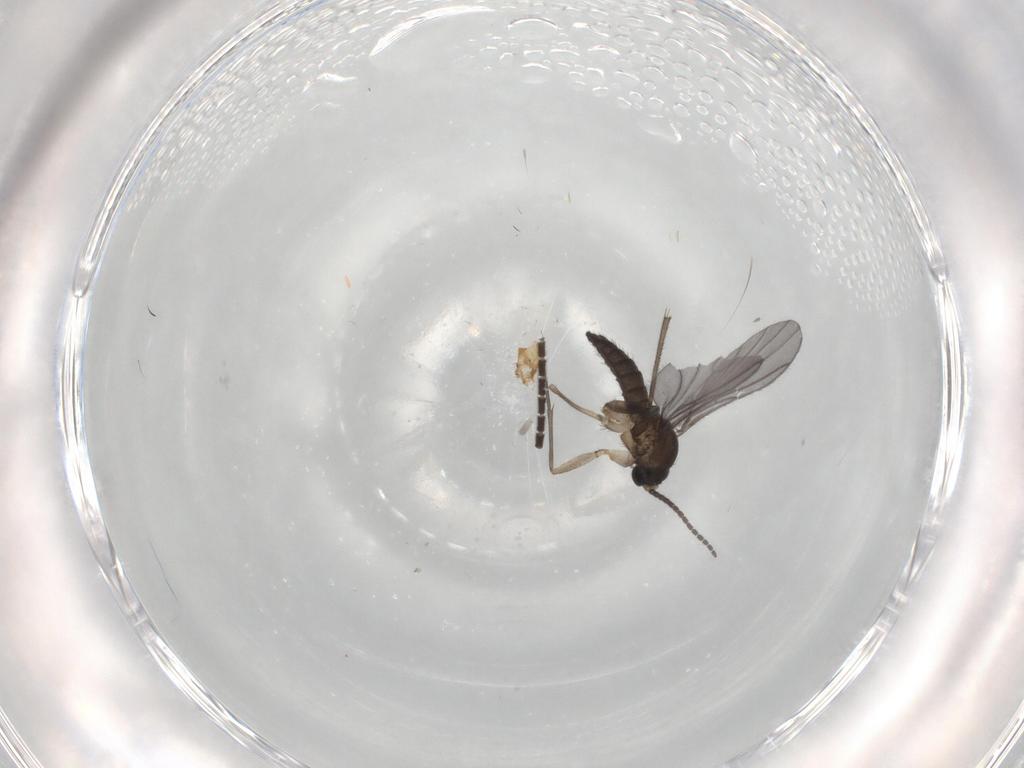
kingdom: Animalia
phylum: Arthropoda
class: Insecta
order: Diptera
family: Sciaridae
